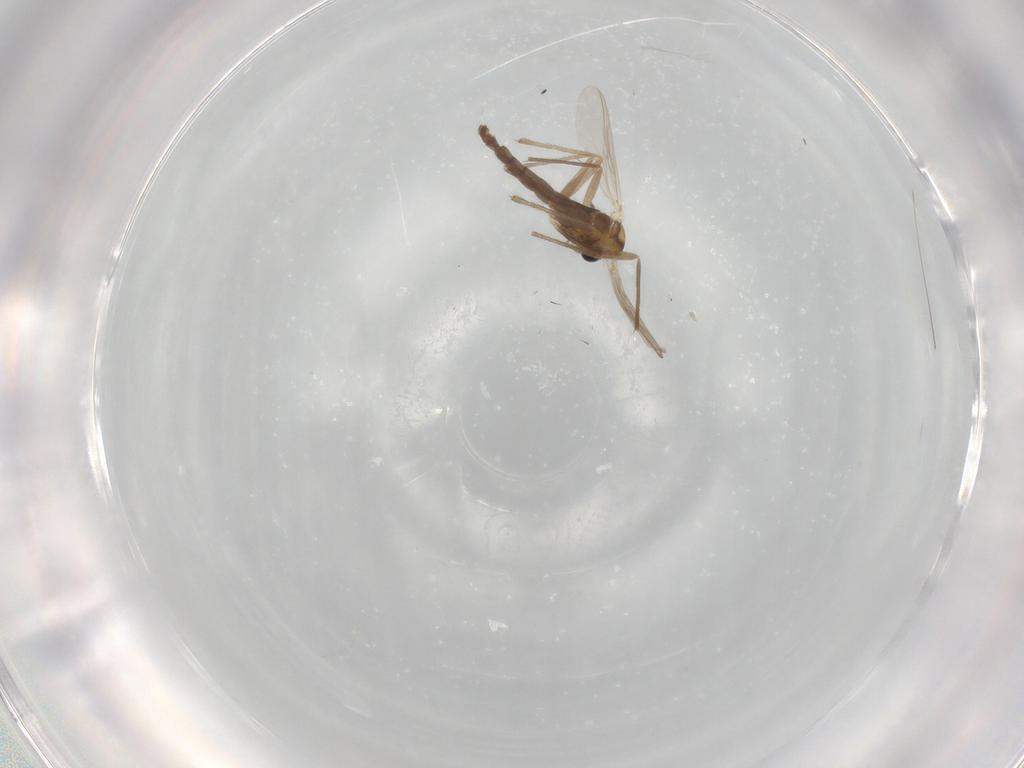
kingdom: Animalia
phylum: Arthropoda
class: Insecta
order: Diptera
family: Chironomidae
